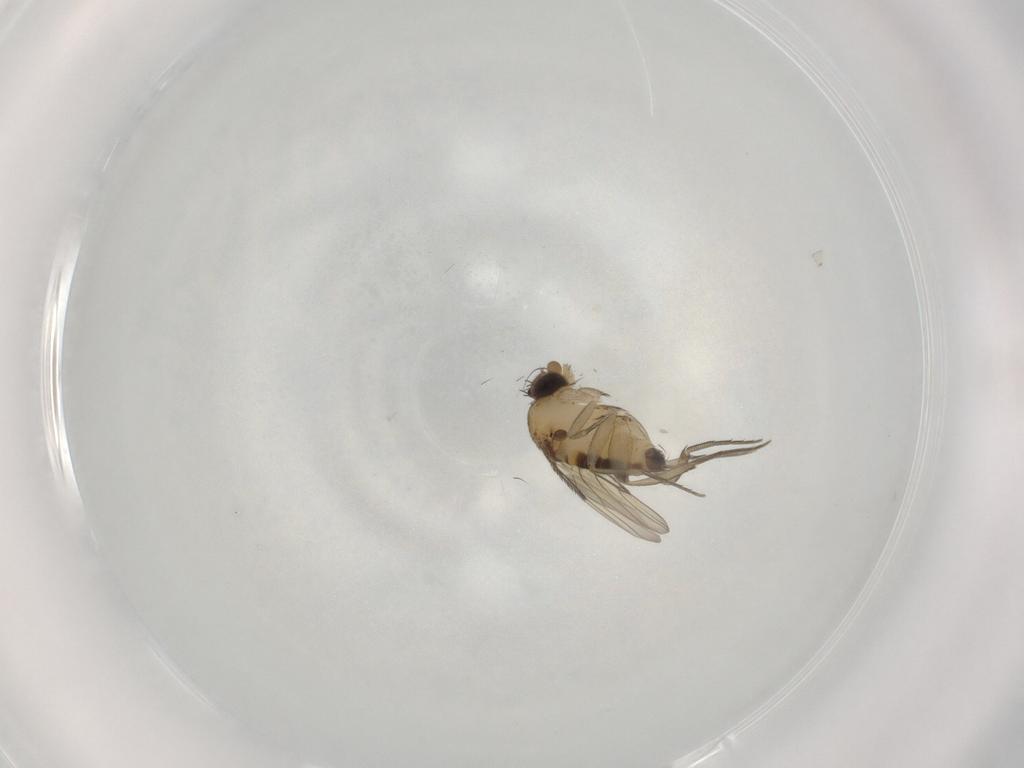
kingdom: Animalia
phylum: Arthropoda
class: Insecta
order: Diptera
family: Phoridae
